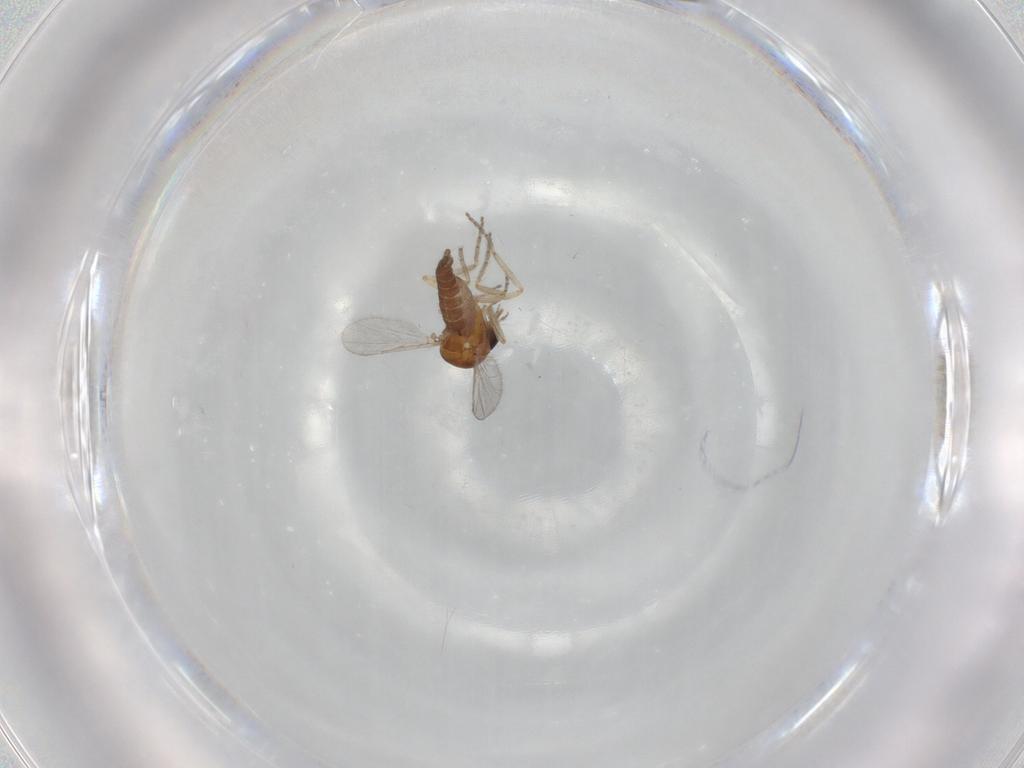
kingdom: Animalia
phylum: Arthropoda
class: Insecta
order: Diptera
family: Ceratopogonidae
